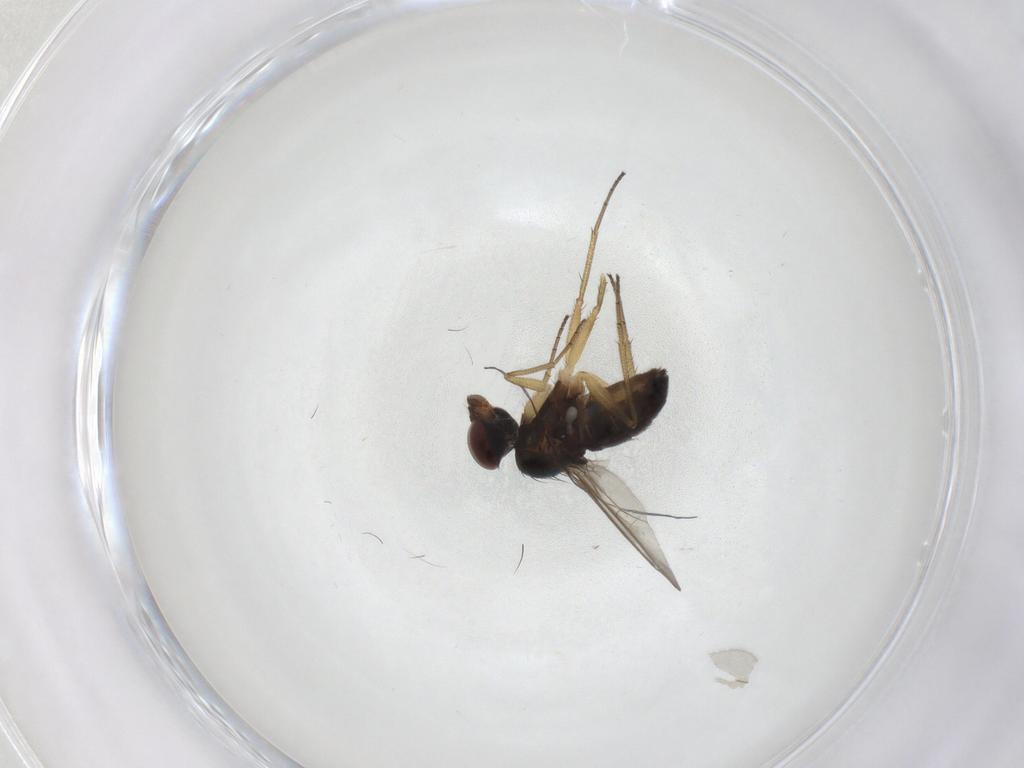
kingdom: Animalia
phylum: Arthropoda
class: Insecta
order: Diptera
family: Dolichopodidae
